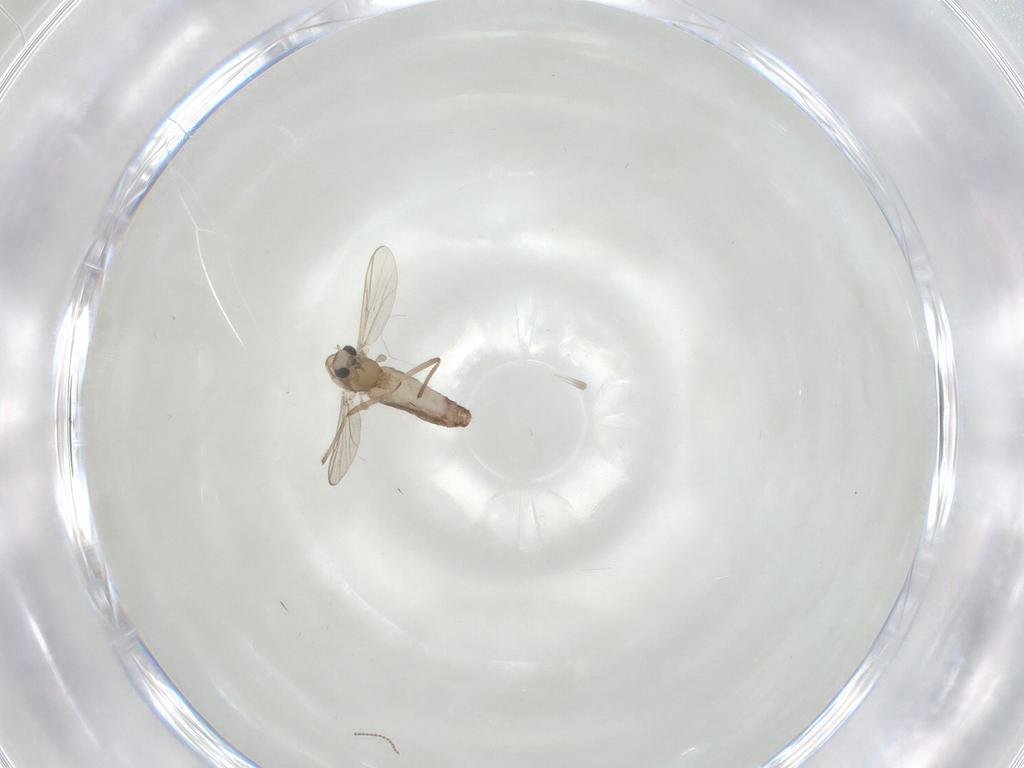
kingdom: Animalia
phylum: Arthropoda
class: Insecta
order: Diptera
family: Chironomidae
